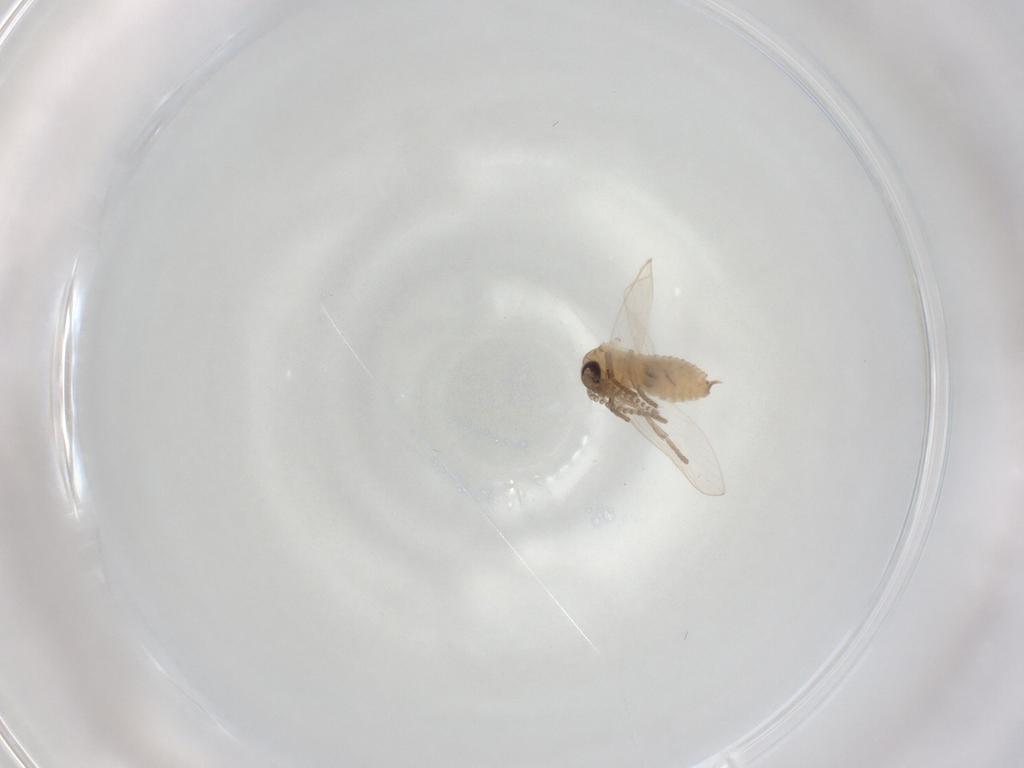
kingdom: Animalia
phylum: Arthropoda
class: Insecta
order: Diptera
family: Psychodidae
